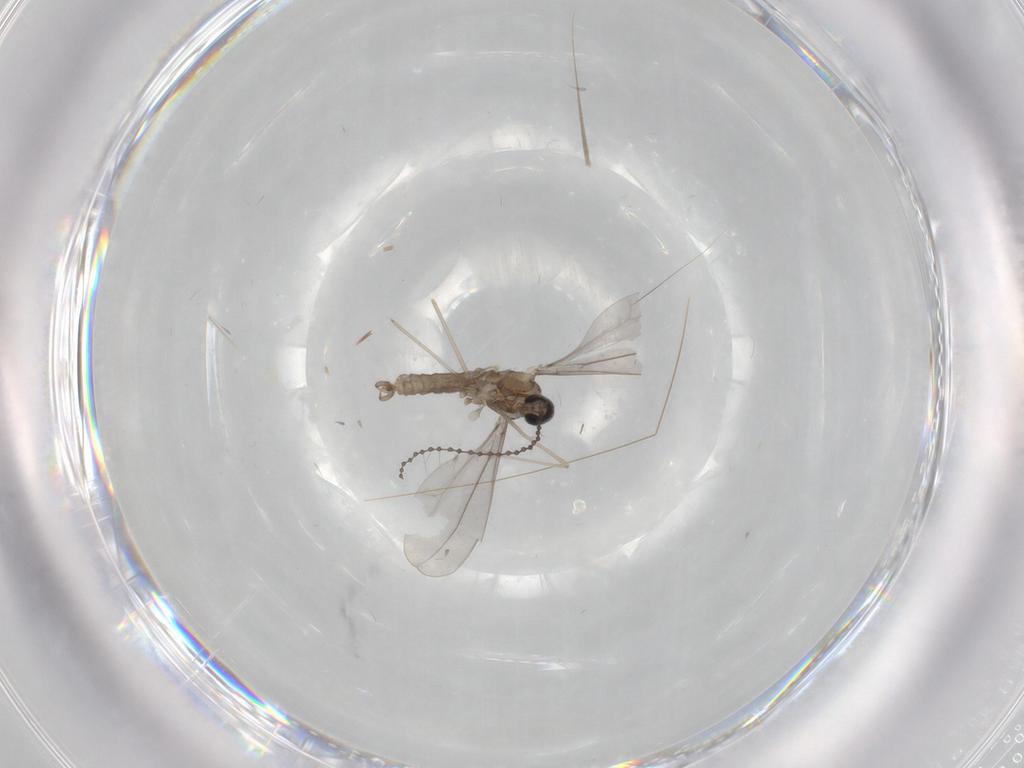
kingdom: Animalia
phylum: Arthropoda
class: Insecta
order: Diptera
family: Cecidomyiidae
